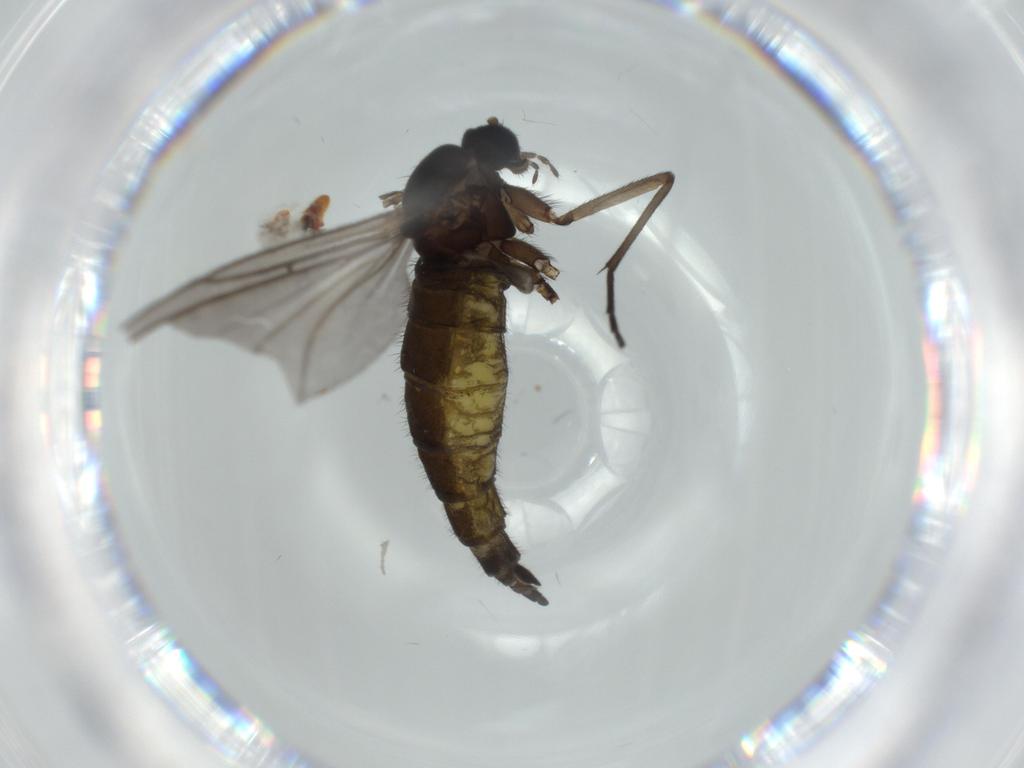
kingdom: Animalia
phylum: Arthropoda
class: Insecta
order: Diptera
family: Sciaridae
